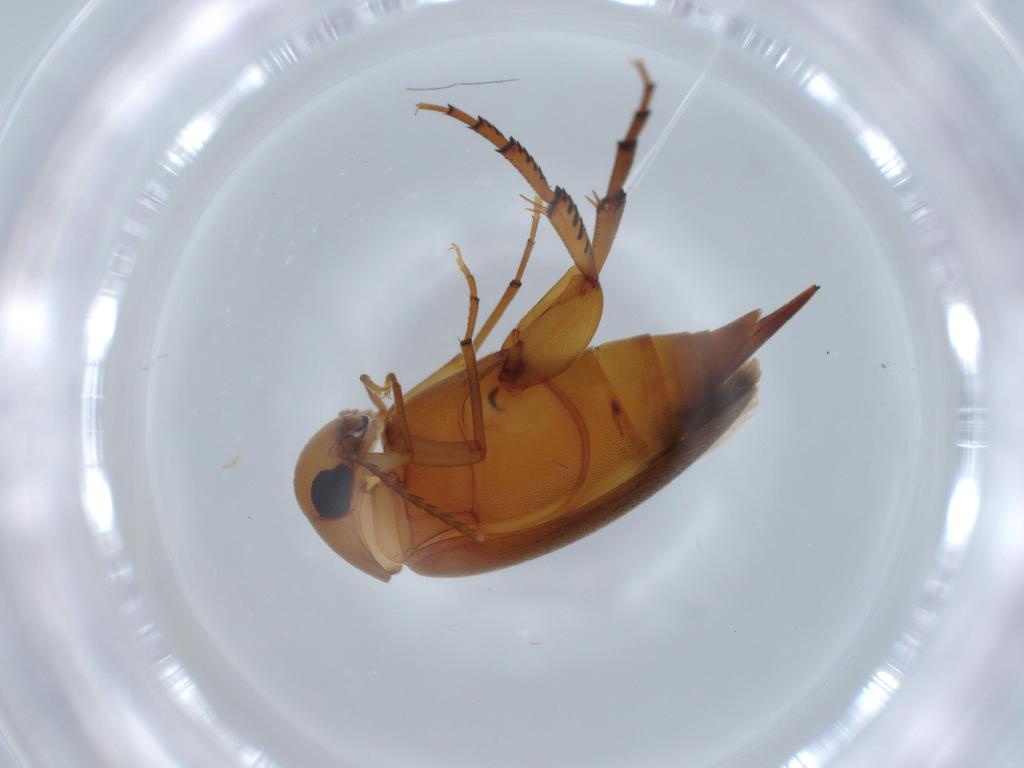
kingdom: Animalia
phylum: Arthropoda
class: Insecta
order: Coleoptera
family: Mordellidae
